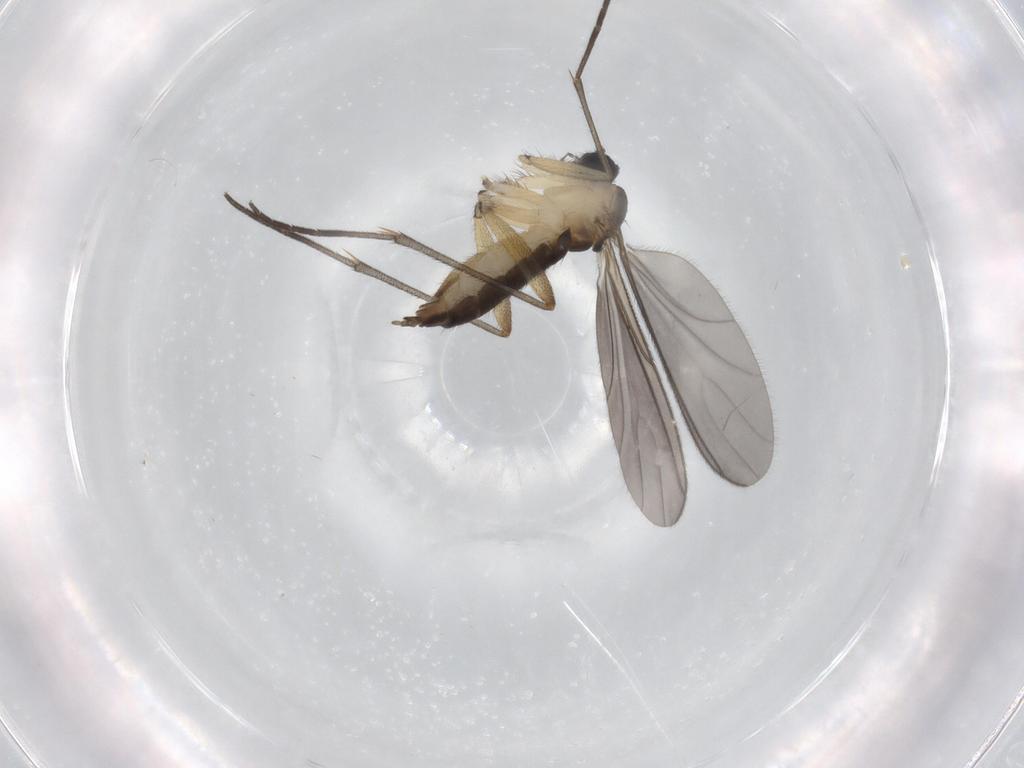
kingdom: Animalia
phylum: Arthropoda
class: Insecta
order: Diptera
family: Sciaridae
